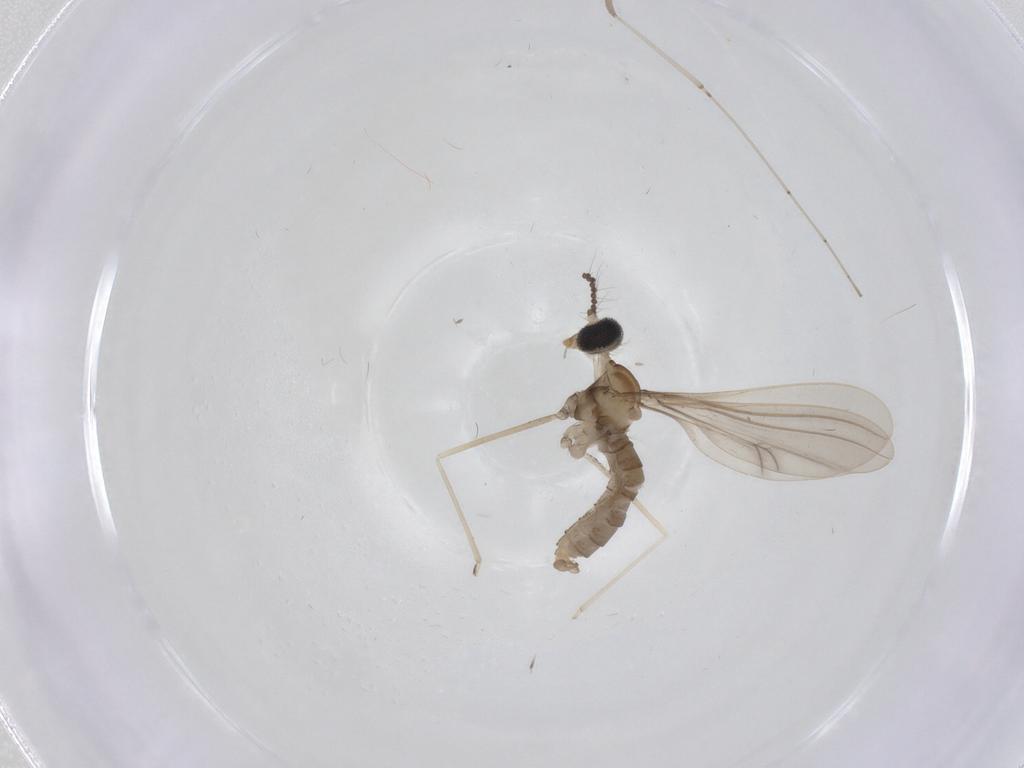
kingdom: Animalia
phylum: Arthropoda
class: Insecta
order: Diptera
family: Cecidomyiidae
